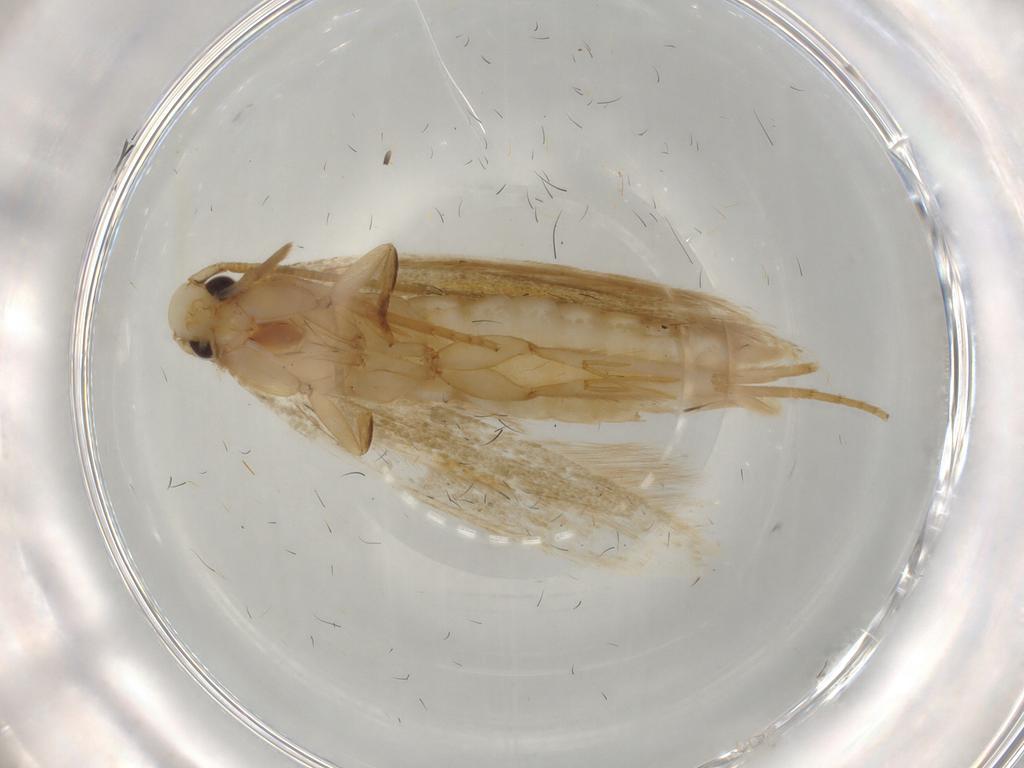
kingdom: Animalia
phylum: Arthropoda
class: Insecta
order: Lepidoptera
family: Tineidae
